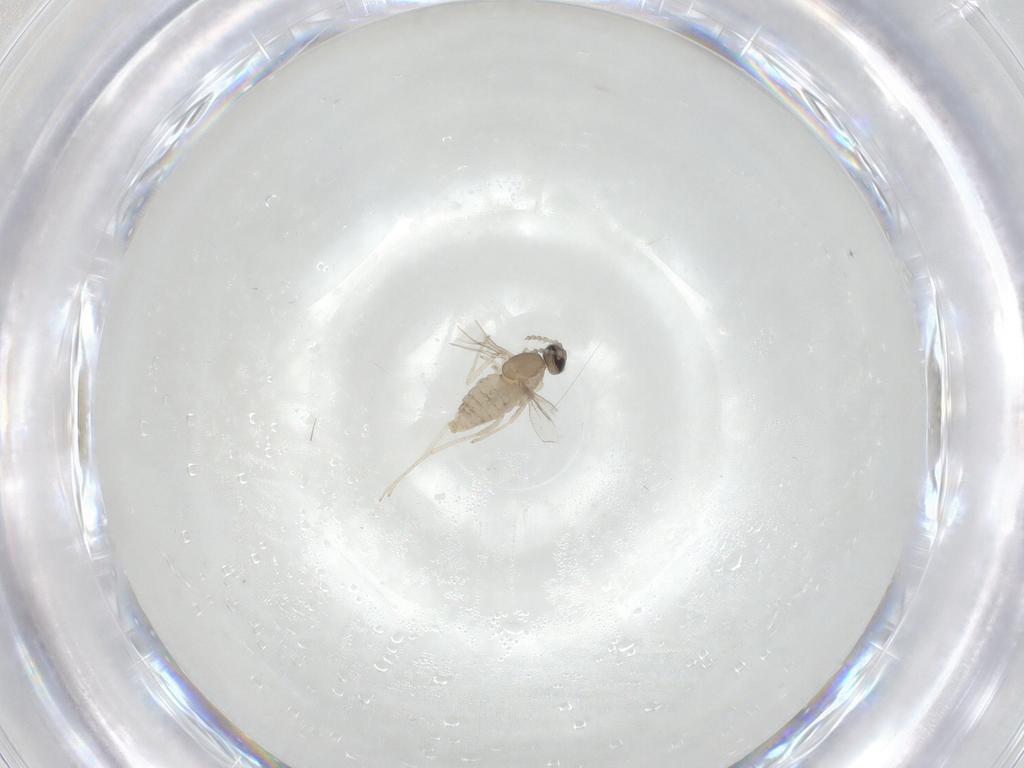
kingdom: Animalia
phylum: Arthropoda
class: Insecta
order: Diptera
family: Cecidomyiidae
